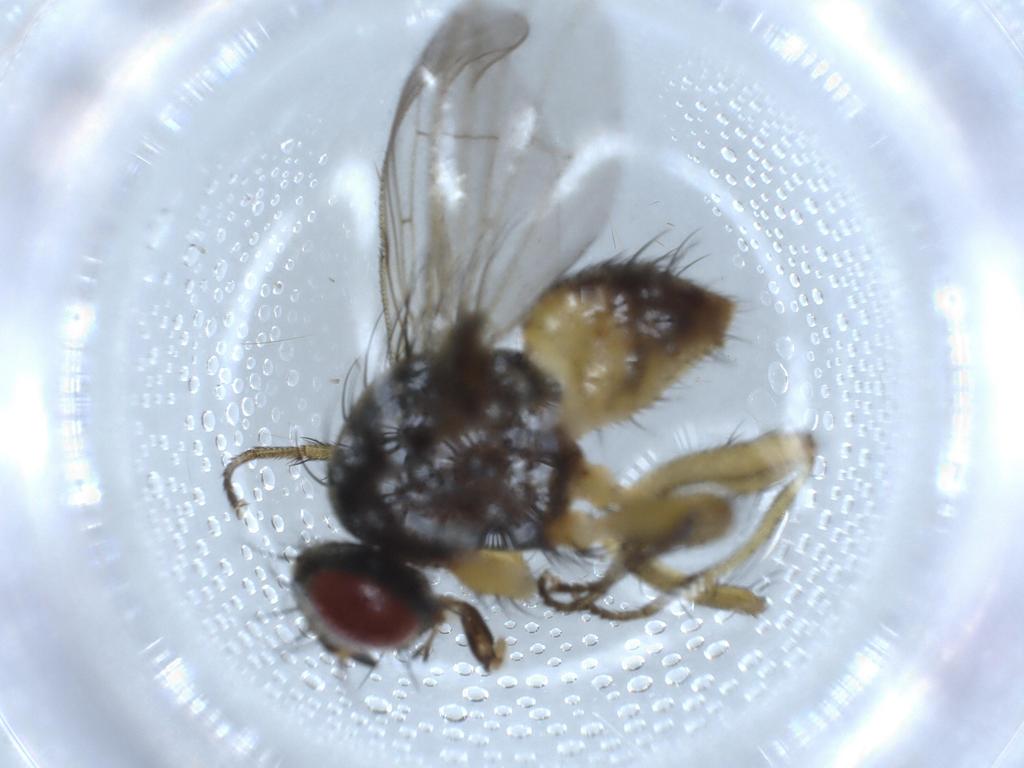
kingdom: Animalia
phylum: Arthropoda
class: Insecta
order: Diptera
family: Muscidae
